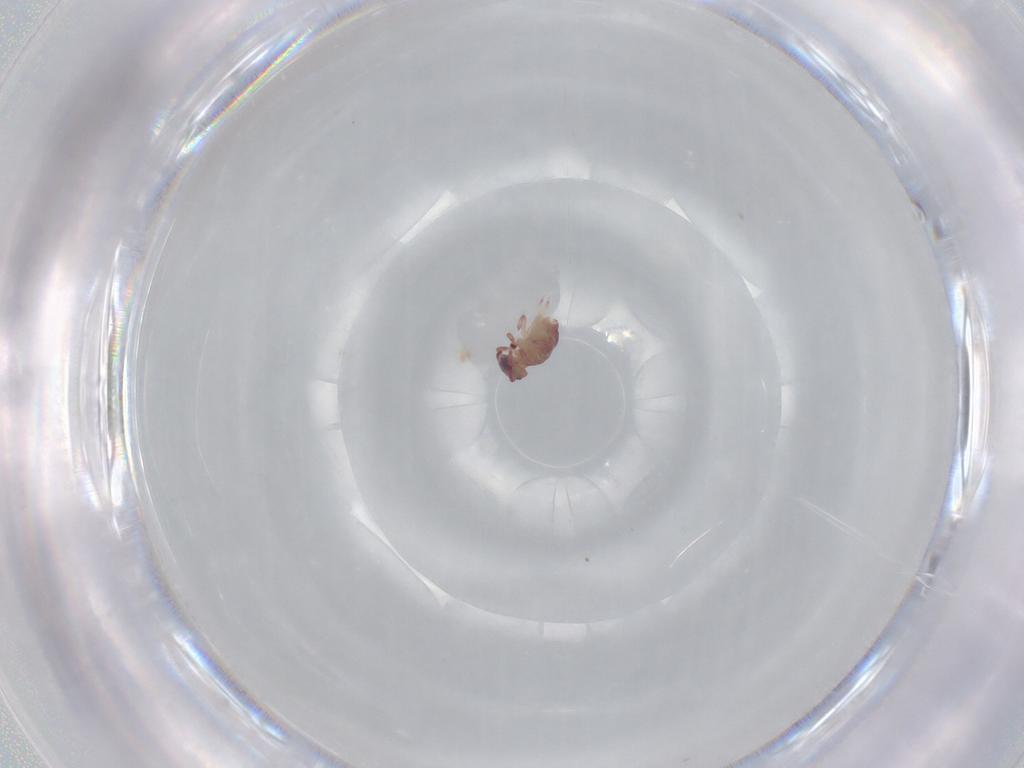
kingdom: Animalia
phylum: Arthropoda
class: Collembola
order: Symphypleona
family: Sminthurididae
